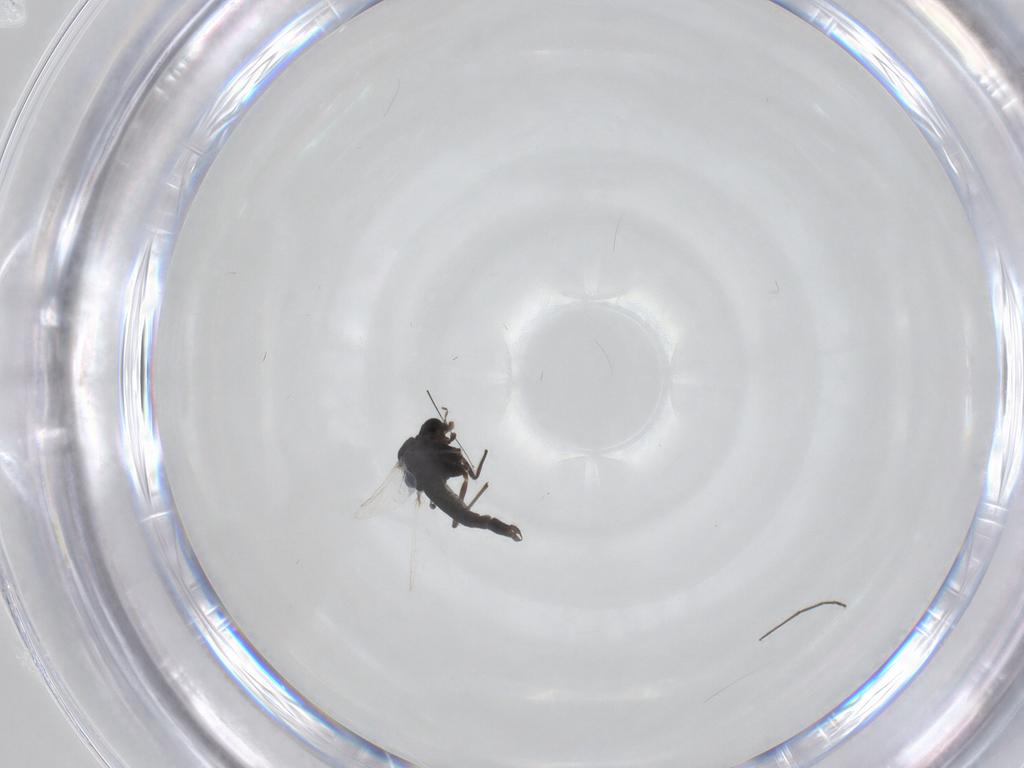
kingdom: Animalia
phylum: Arthropoda
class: Insecta
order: Diptera
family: Chironomidae
